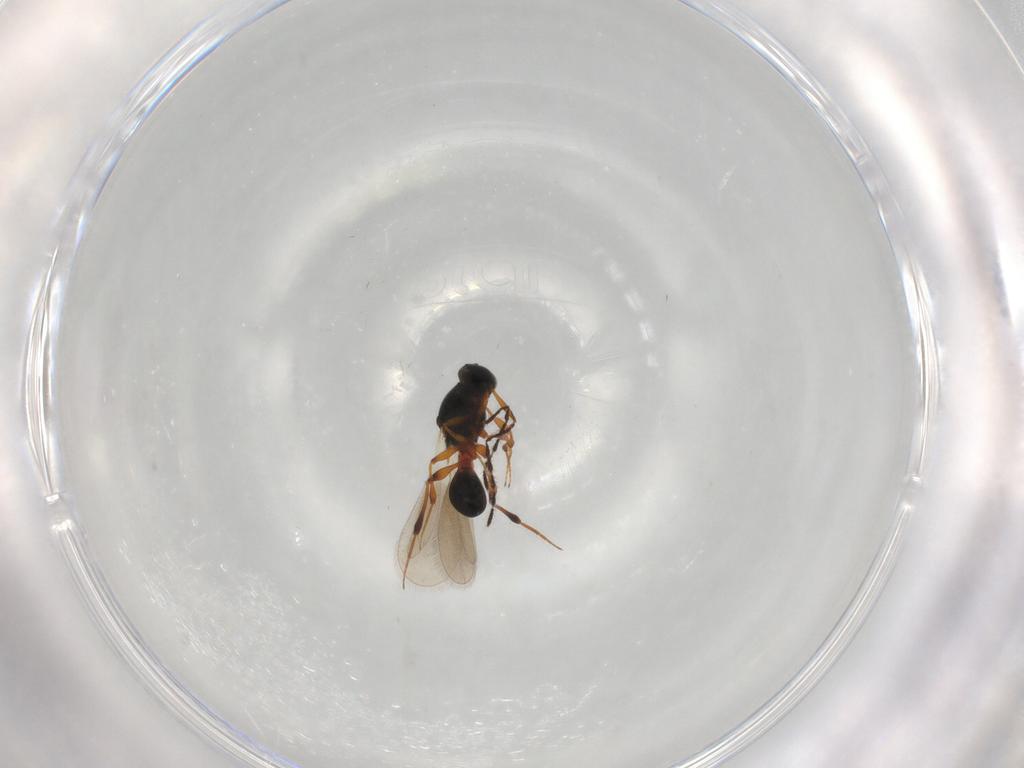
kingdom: Animalia
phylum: Arthropoda
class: Insecta
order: Hymenoptera
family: Platygastridae
